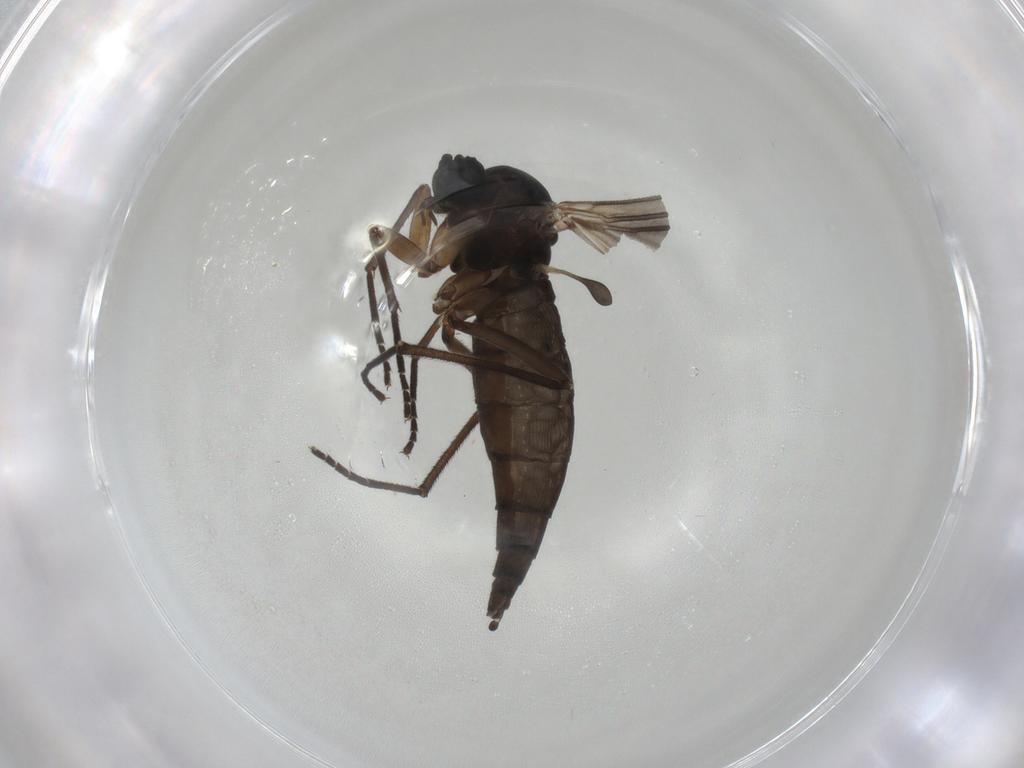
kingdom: Animalia
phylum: Arthropoda
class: Insecta
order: Diptera
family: Sciaridae
